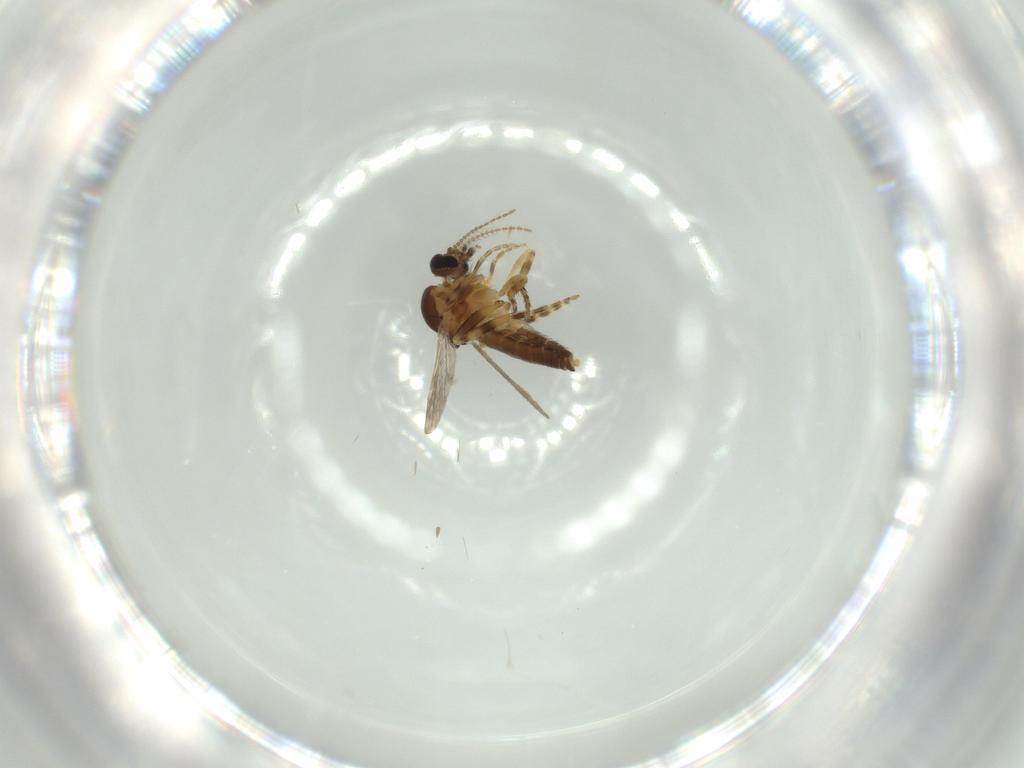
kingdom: Animalia
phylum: Arthropoda
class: Insecta
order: Diptera
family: Sciaridae
